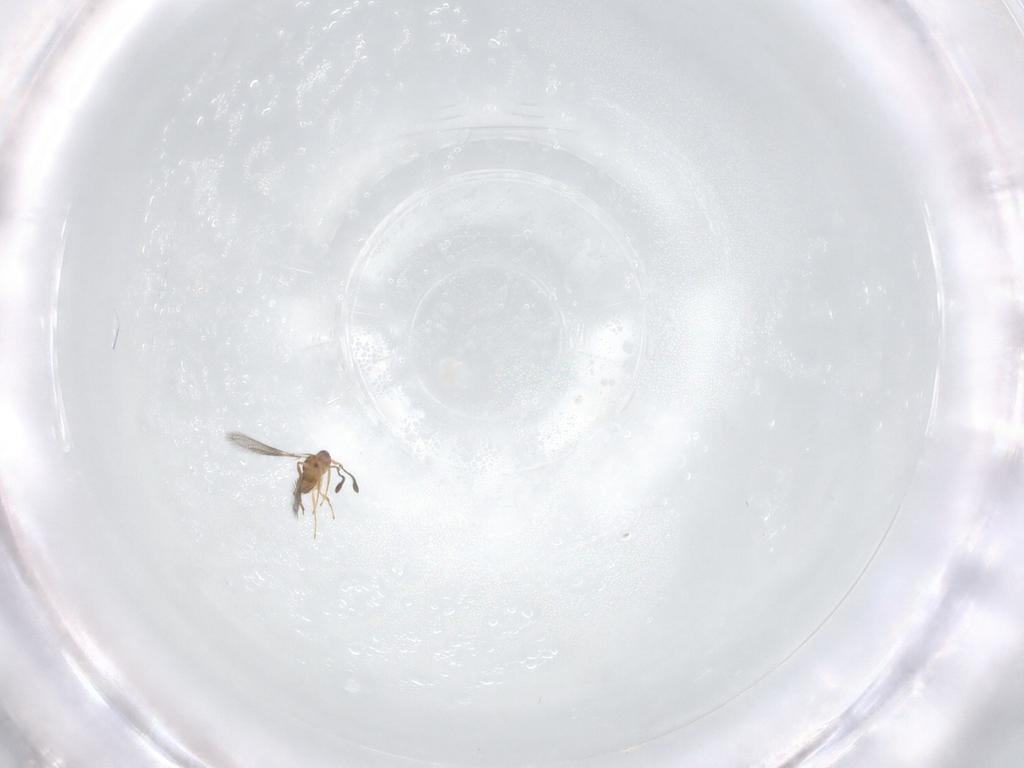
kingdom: Animalia
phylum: Arthropoda
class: Insecta
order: Hymenoptera
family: Mymaridae
